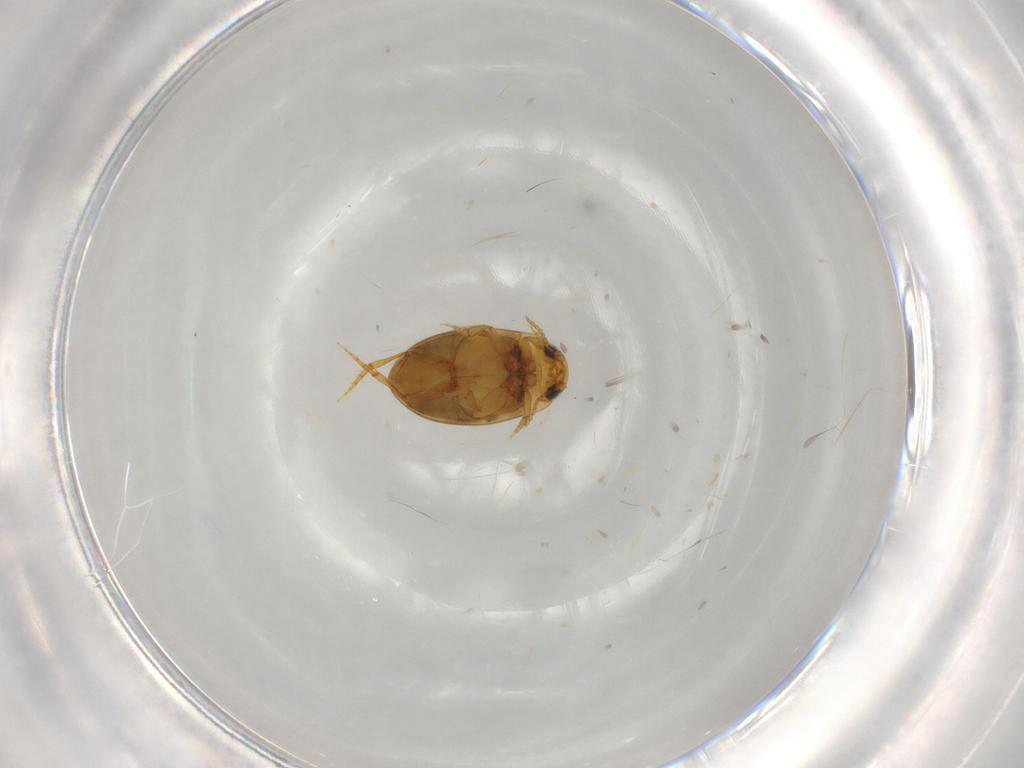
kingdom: Animalia
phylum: Arthropoda
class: Insecta
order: Coleoptera
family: Dytiscidae
